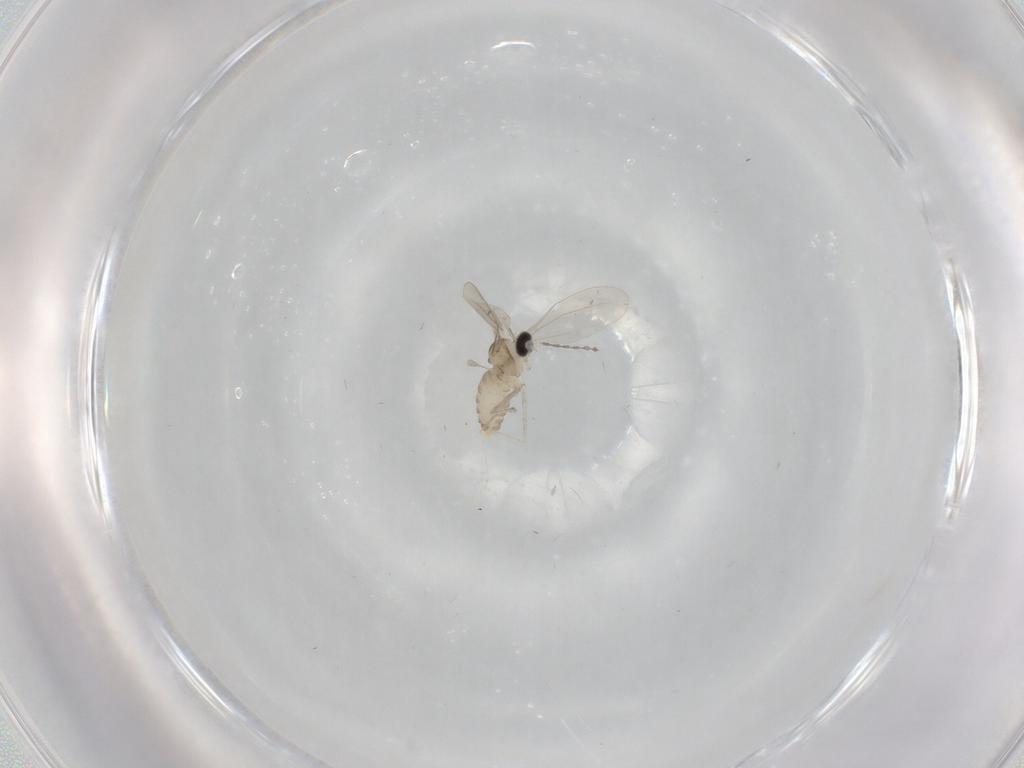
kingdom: Animalia
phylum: Arthropoda
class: Insecta
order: Diptera
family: Cecidomyiidae
